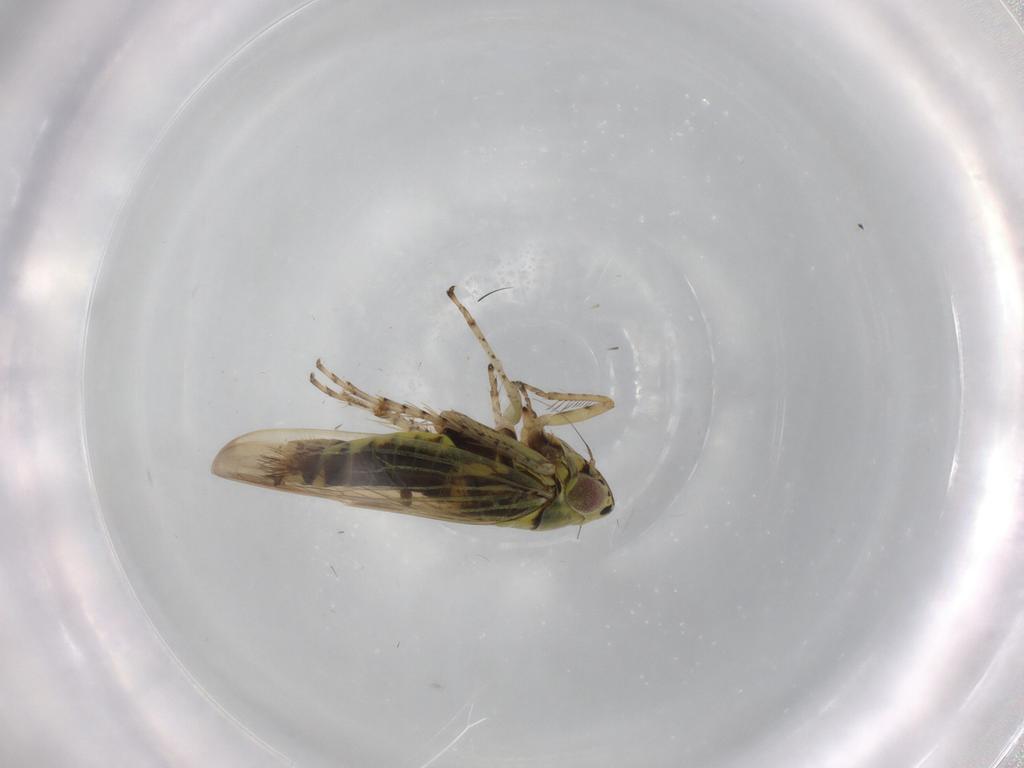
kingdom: Animalia
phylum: Arthropoda
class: Insecta
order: Hemiptera
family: Cicadellidae
